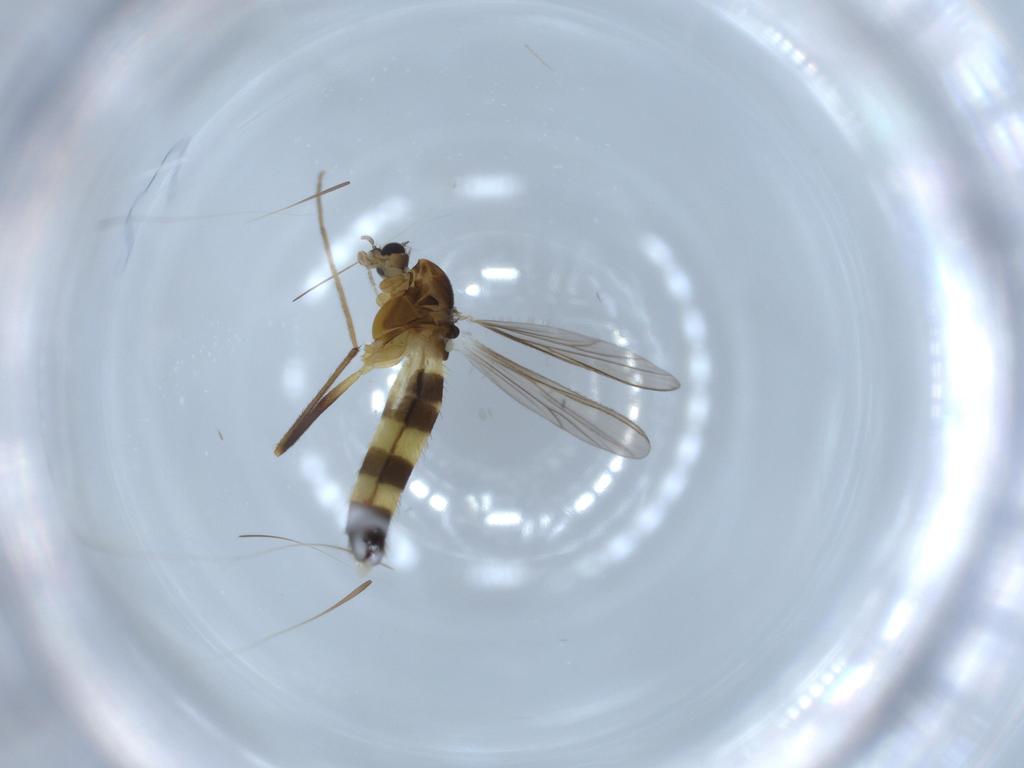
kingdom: Animalia
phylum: Arthropoda
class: Insecta
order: Diptera
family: Chironomidae
